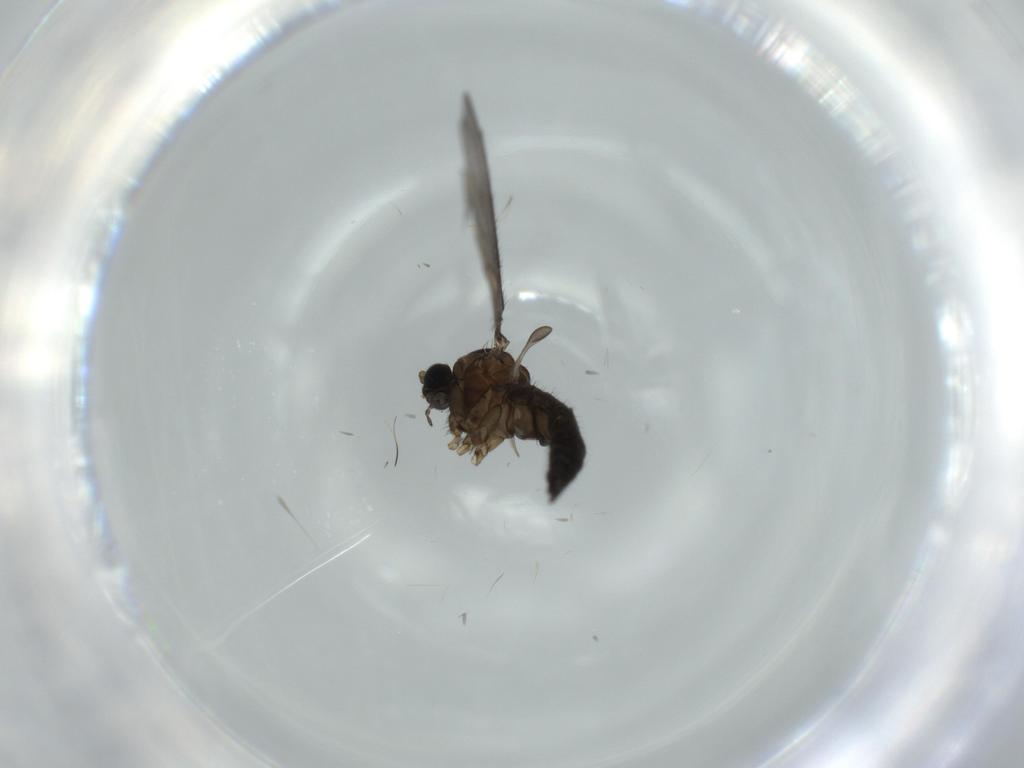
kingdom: Animalia
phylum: Arthropoda
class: Insecta
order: Diptera
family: Sciaridae
